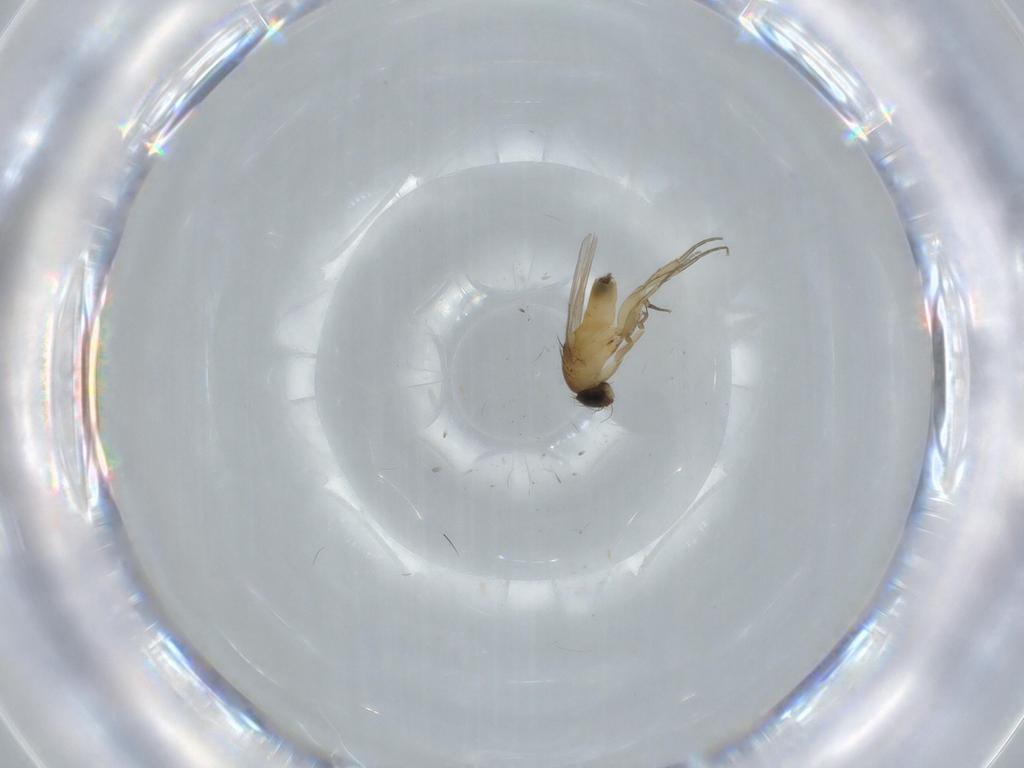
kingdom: Animalia
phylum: Arthropoda
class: Insecta
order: Diptera
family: Phoridae
